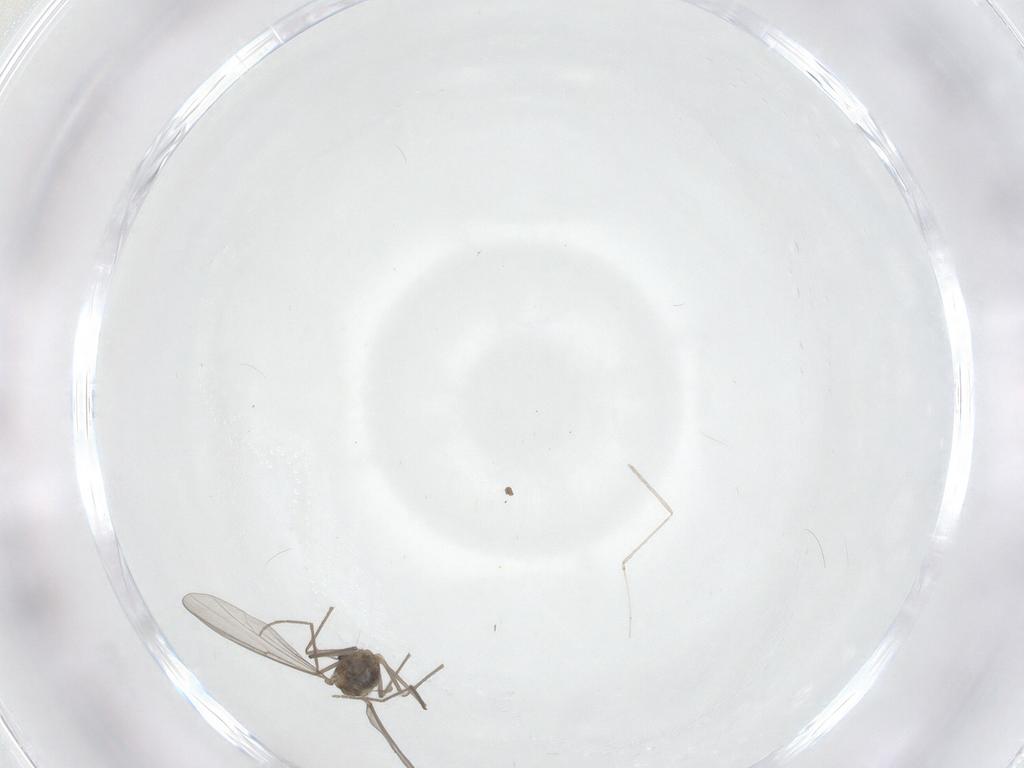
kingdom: Animalia
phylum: Arthropoda
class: Insecta
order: Diptera
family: Chironomidae
